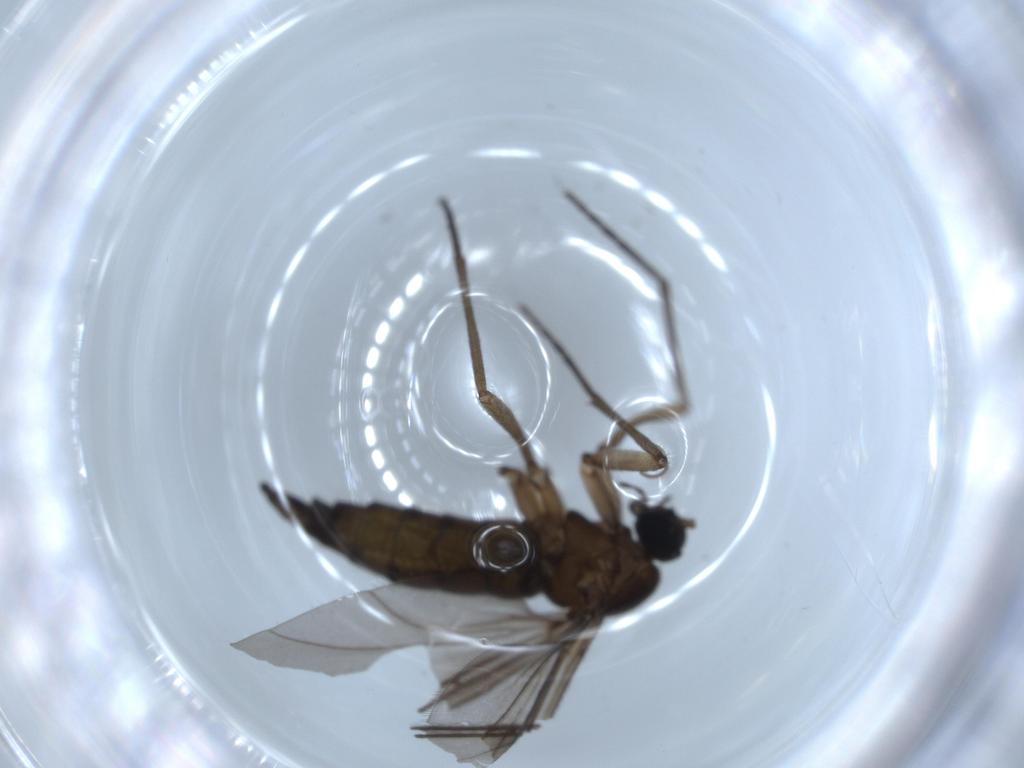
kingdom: Animalia
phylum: Arthropoda
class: Insecta
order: Diptera
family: Sciaridae
